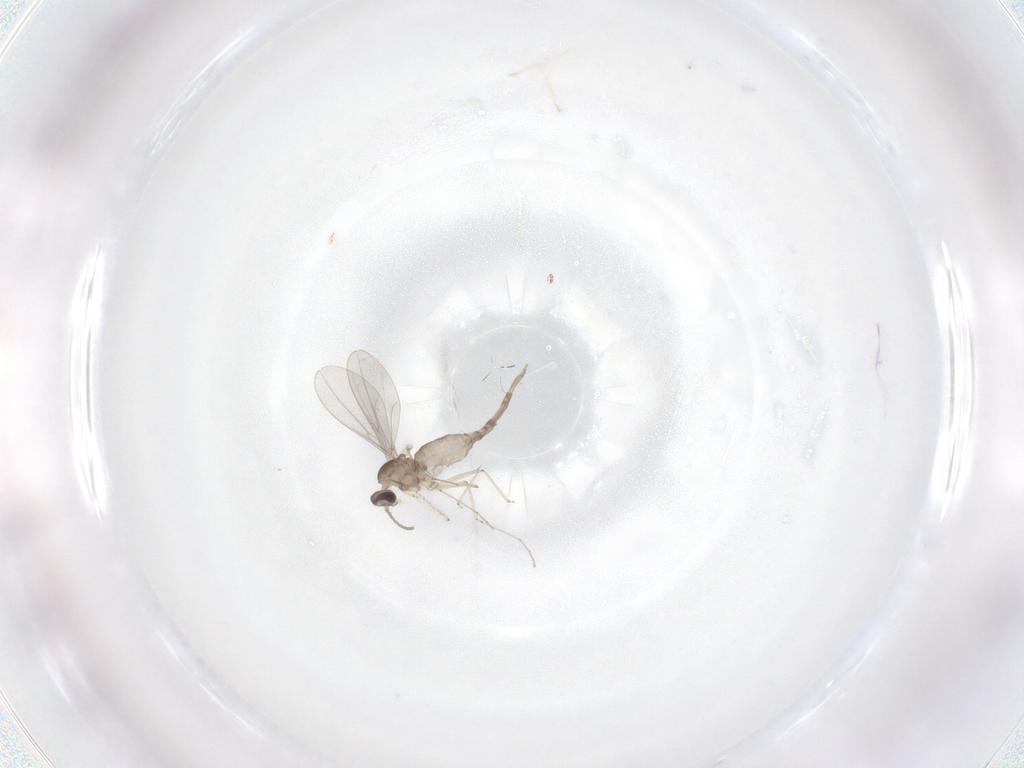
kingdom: Animalia
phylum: Arthropoda
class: Insecta
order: Diptera
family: Cecidomyiidae
